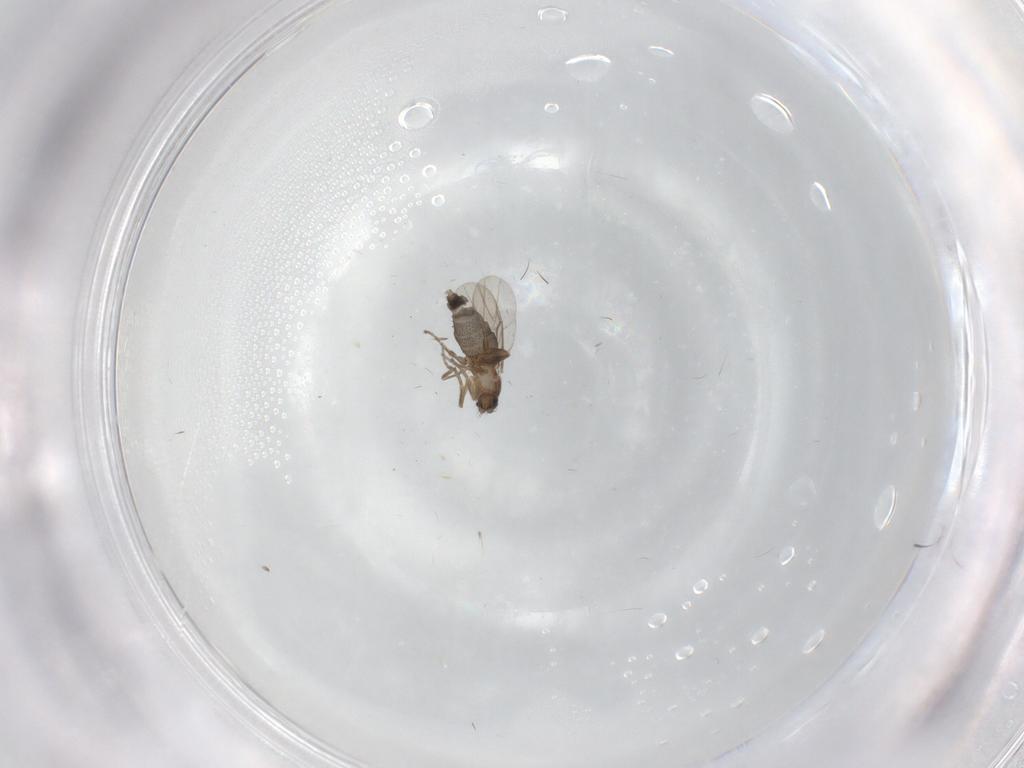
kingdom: Animalia
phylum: Arthropoda
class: Insecta
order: Diptera
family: Phoridae
